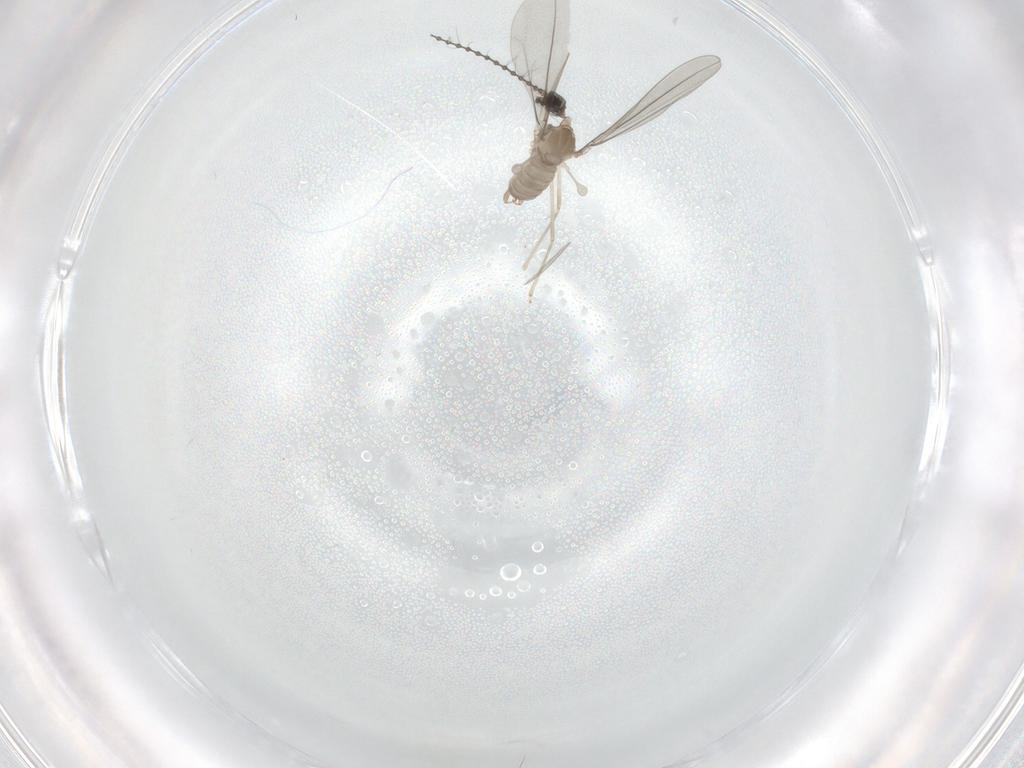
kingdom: Animalia
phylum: Arthropoda
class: Insecta
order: Diptera
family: Cecidomyiidae
